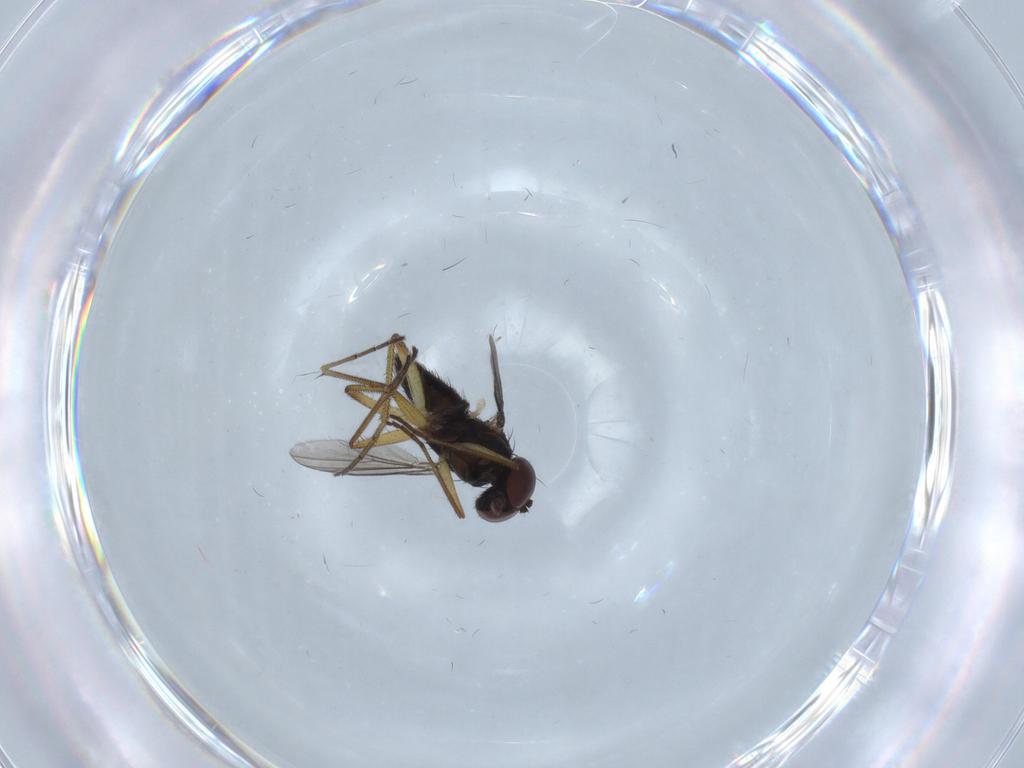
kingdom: Animalia
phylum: Arthropoda
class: Insecta
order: Diptera
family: Dolichopodidae
